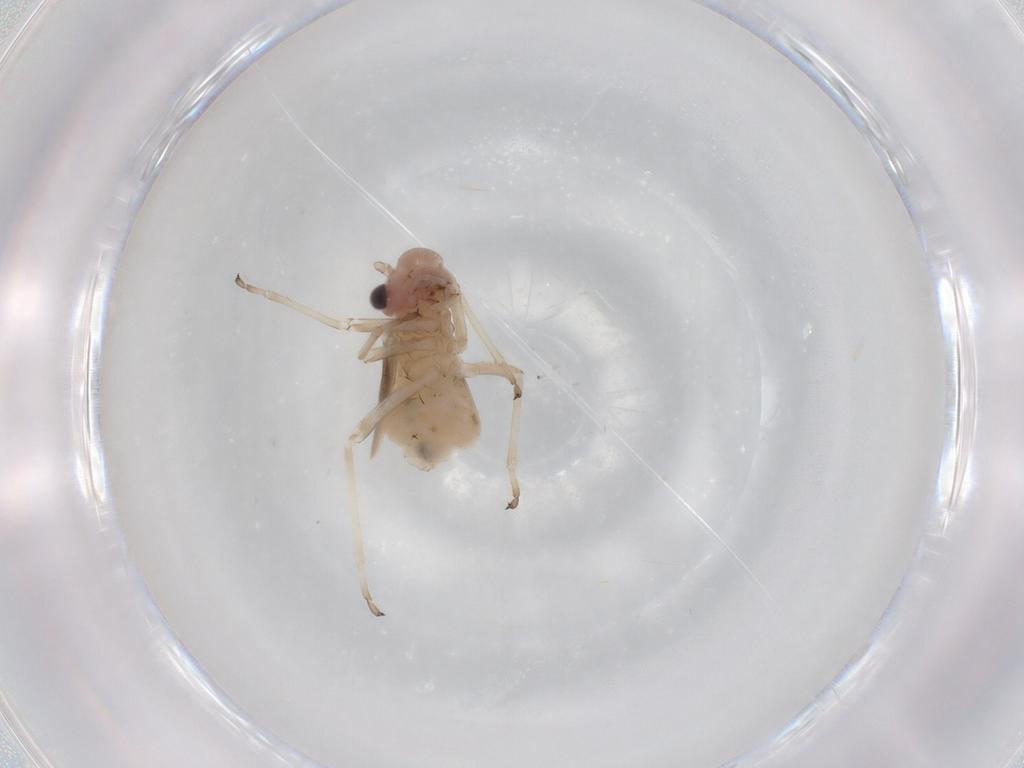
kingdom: Animalia
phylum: Arthropoda
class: Insecta
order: Psocodea
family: Stenopsocidae
